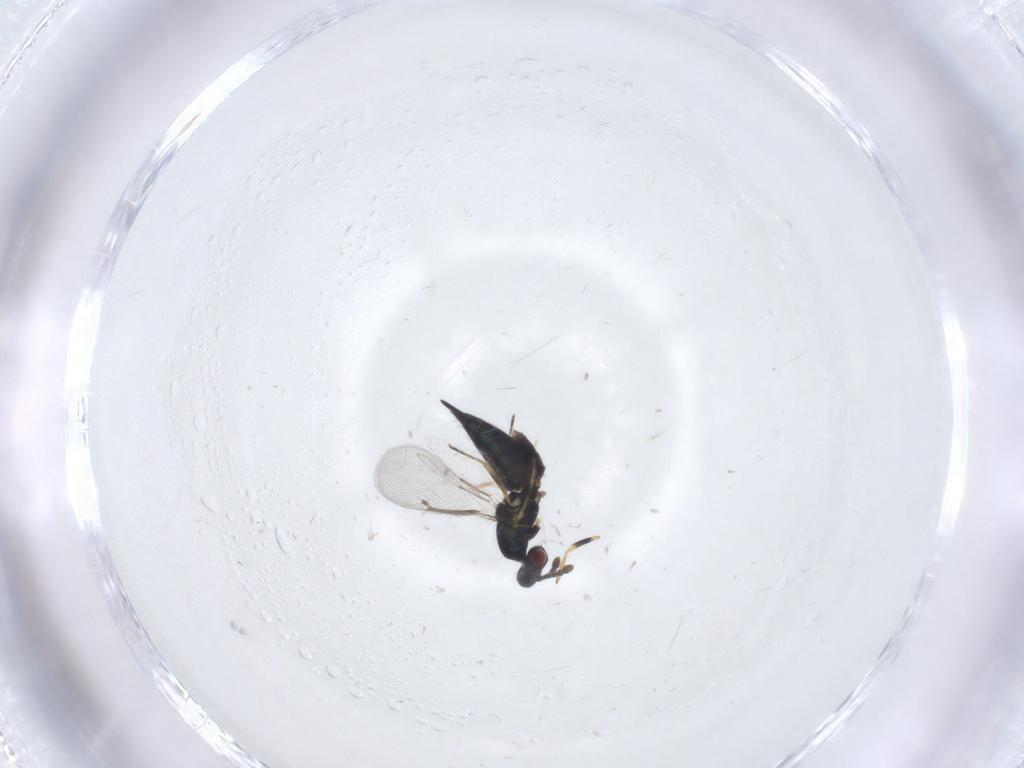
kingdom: Animalia
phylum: Arthropoda
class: Insecta
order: Hymenoptera
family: Eulophidae
